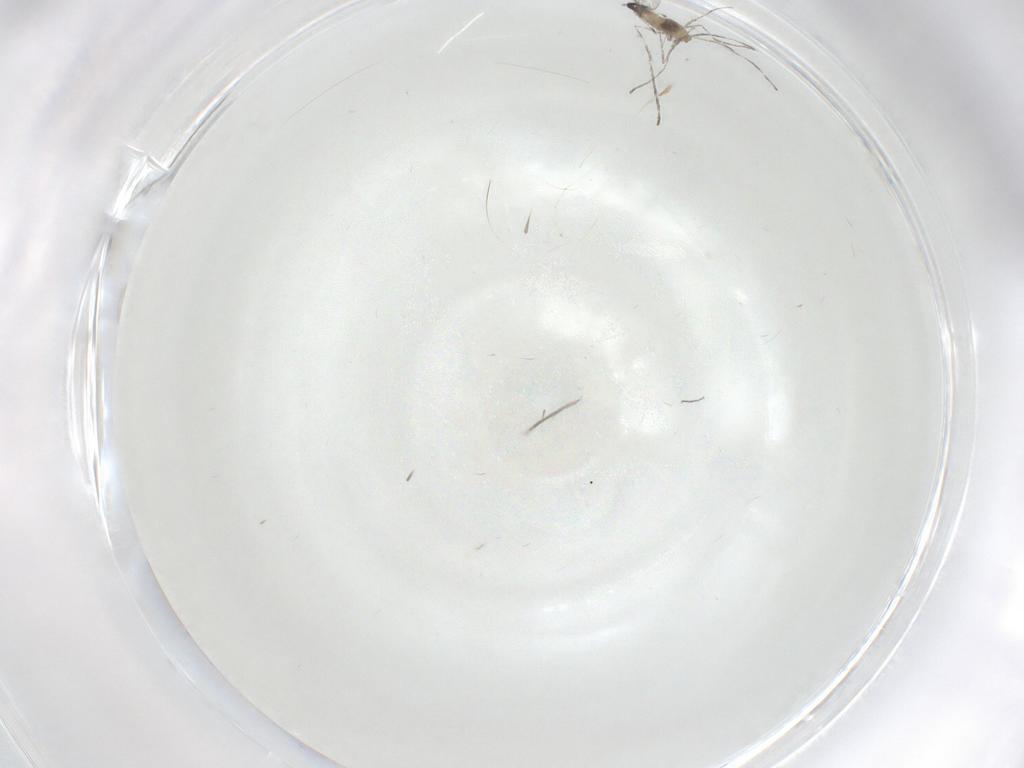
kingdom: Animalia
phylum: Arthropoda
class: Insecta
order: Diptera
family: Cecidomyiidae
